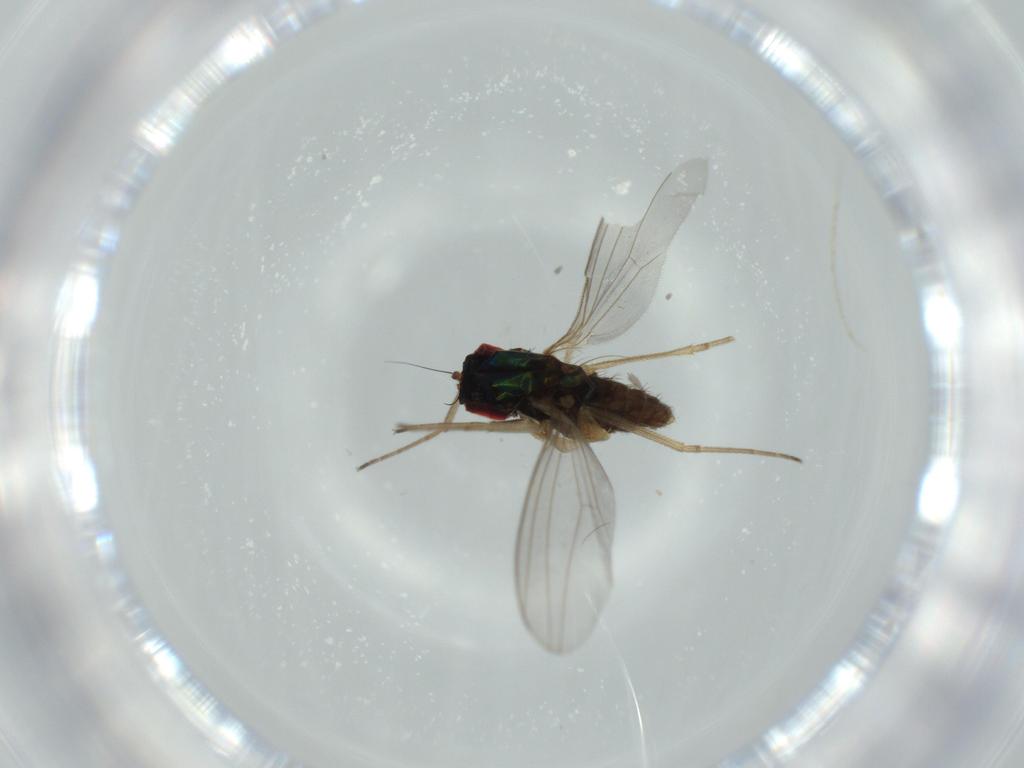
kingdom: Animalia
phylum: Arthropoda
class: Insecta
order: Diptera
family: Dolichopodidae
